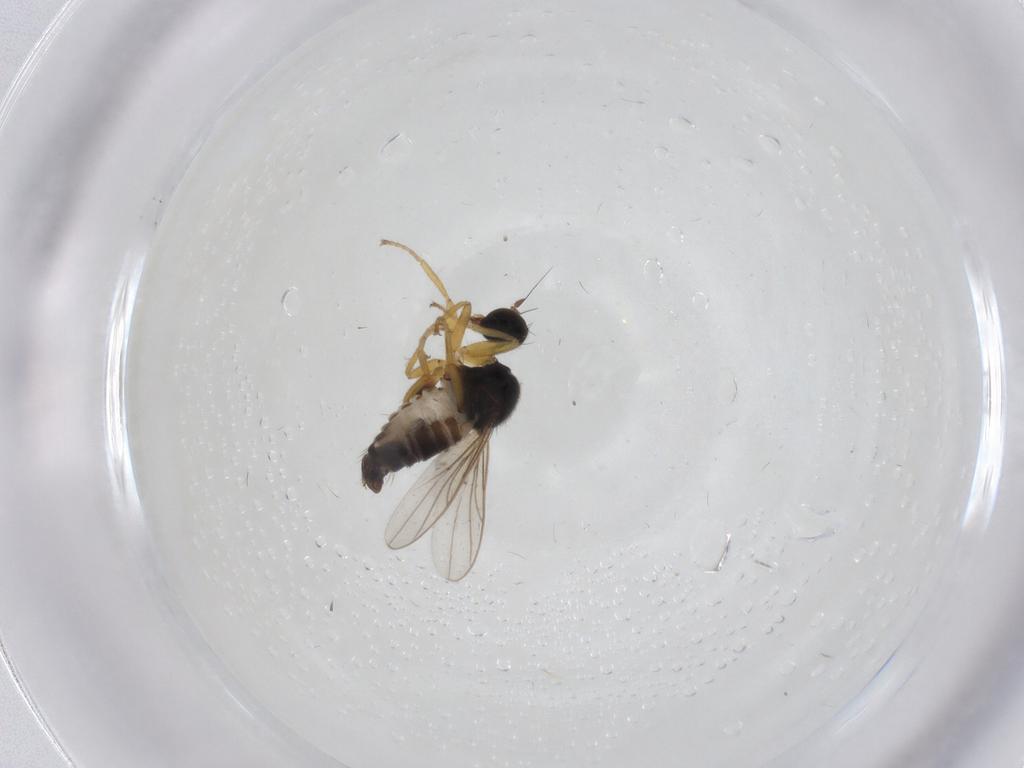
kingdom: Animalia
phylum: Arthropoda
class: Insecta
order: Diptera
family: Hybotidae
